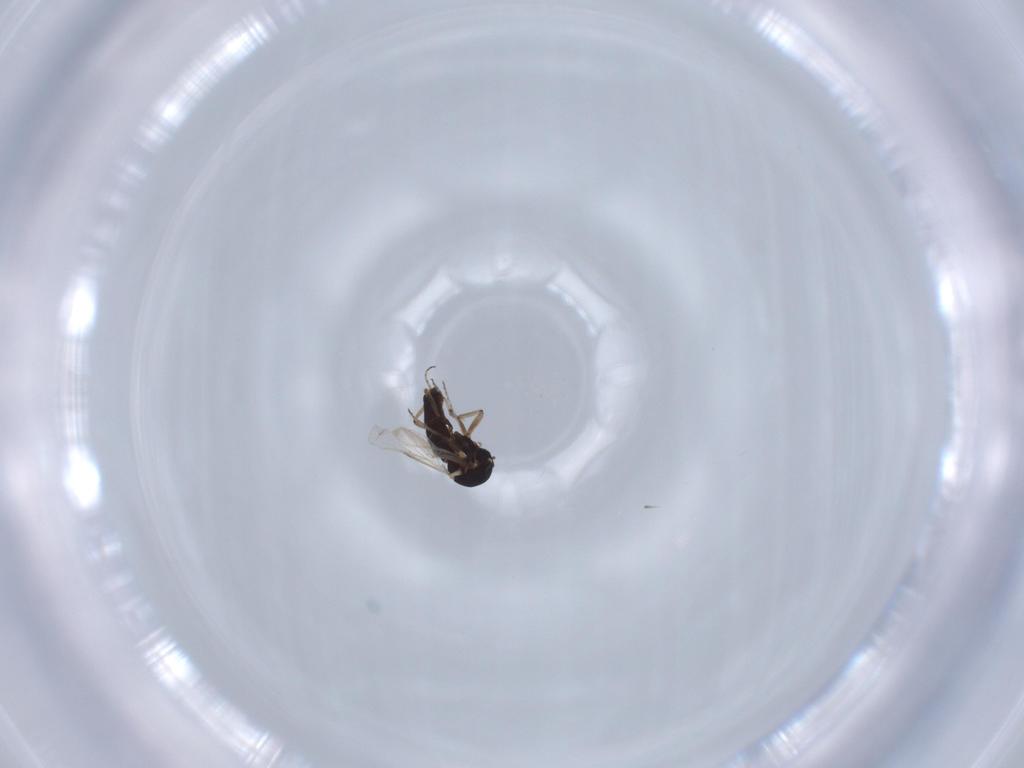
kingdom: Animalia
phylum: Arthropoda
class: Insecta
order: Diptera
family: Ceratopogonidae
